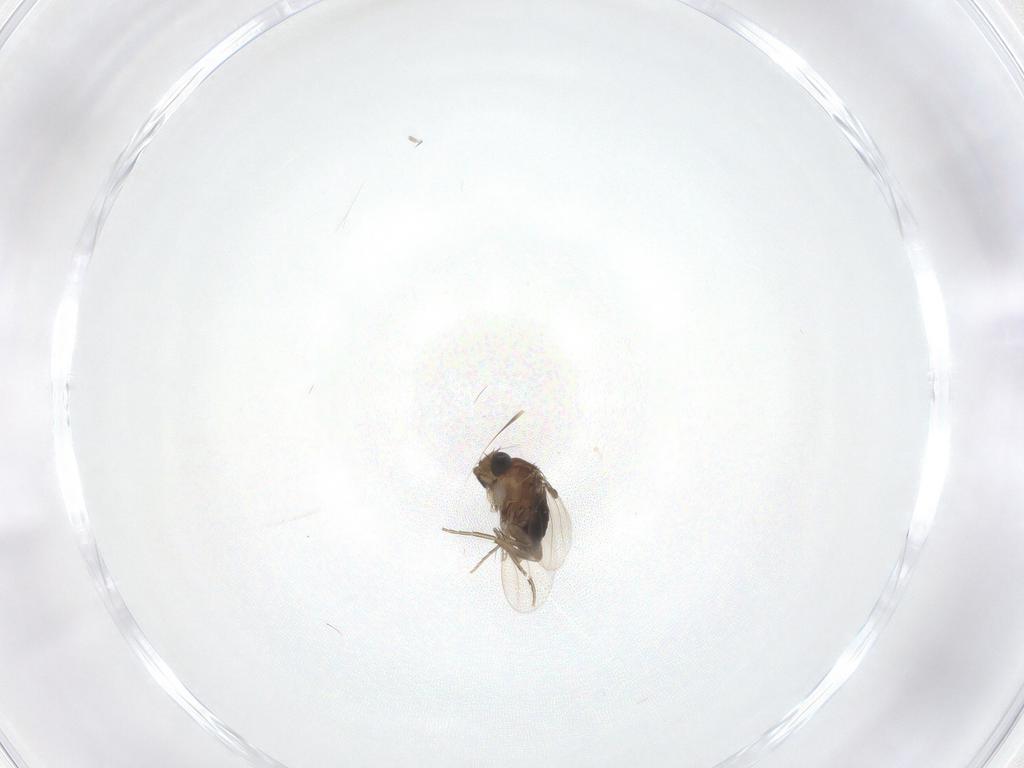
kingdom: Animalia
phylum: Arthropoda
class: Insecta
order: Diptera
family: Phoridae
